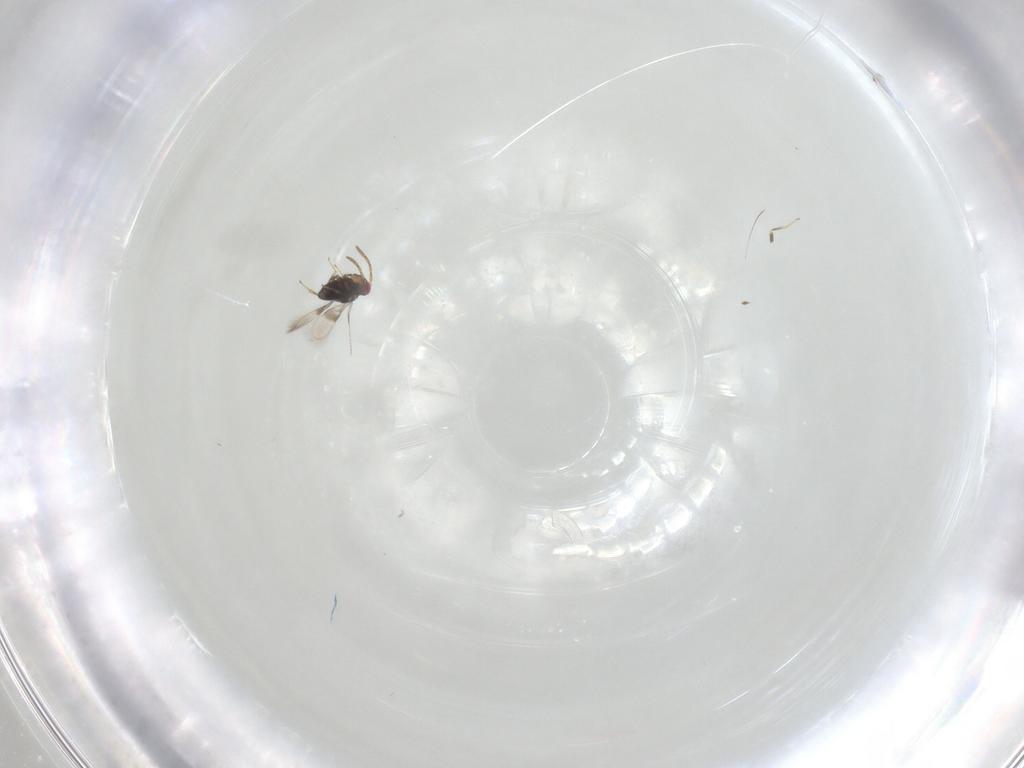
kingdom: Animalia
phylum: Arthropoda
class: Insecta
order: Hymenoptera
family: Azotidae
